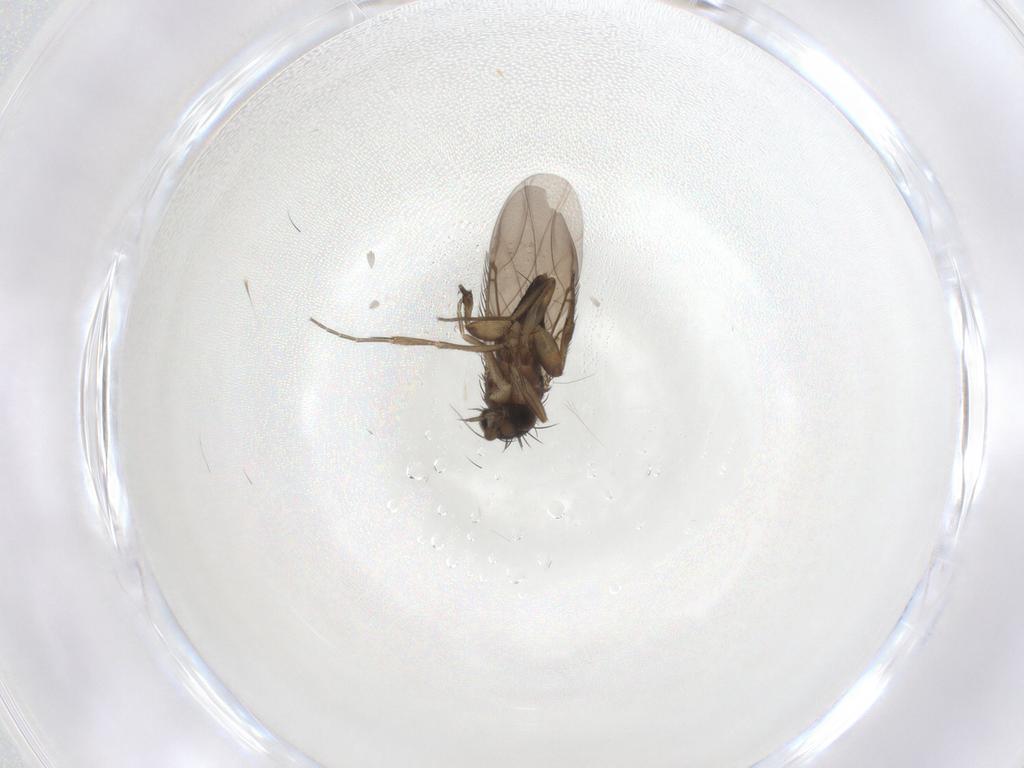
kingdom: Animalia
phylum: Arthropoda
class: Insecta
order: Diptera
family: Phoridae
